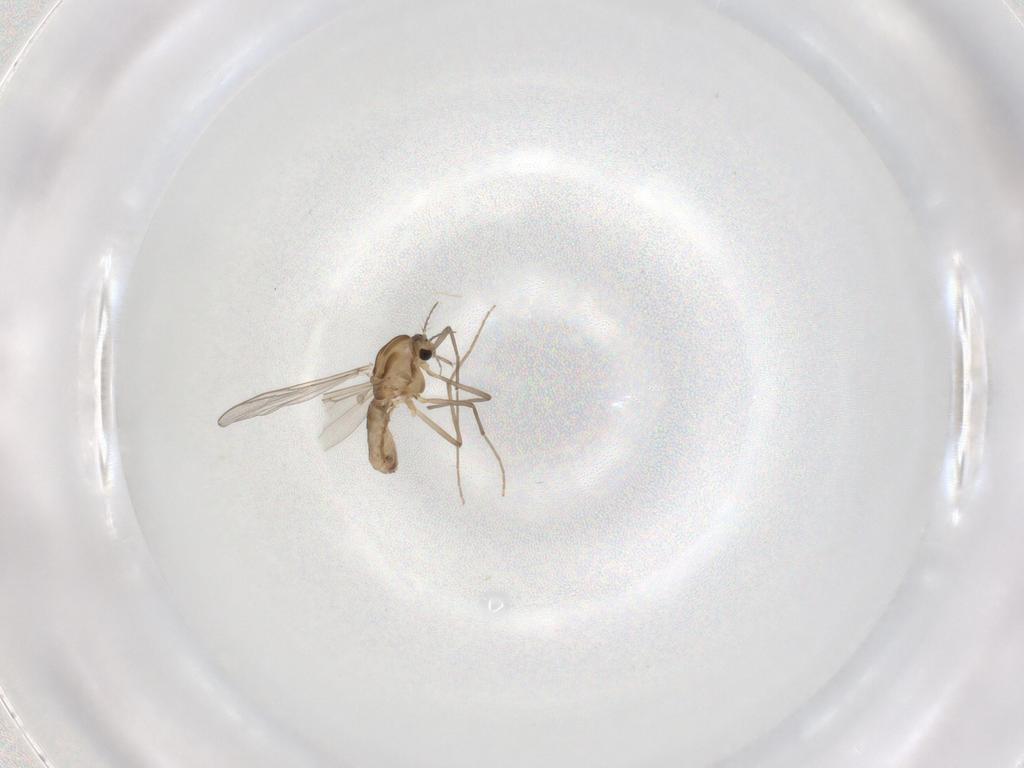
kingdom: Animalia
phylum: Arthropoda
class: Insecta
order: Diptera
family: Chironomidae
